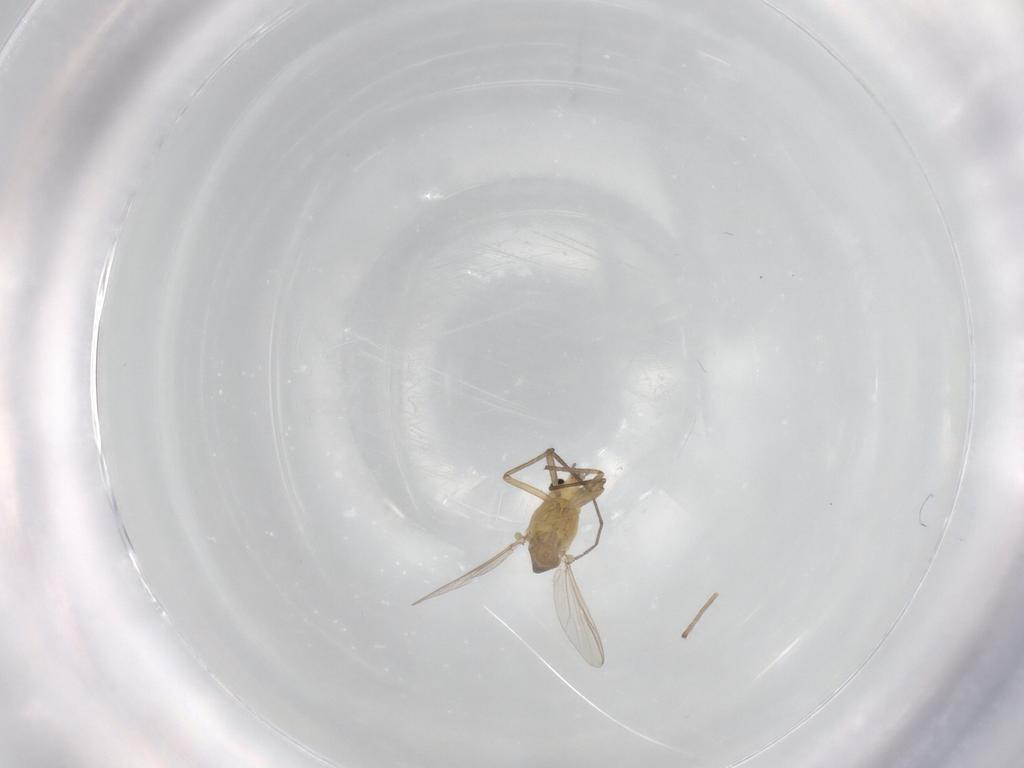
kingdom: Animalia
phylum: Arthropoda
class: Insecta
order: Diptera
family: Chironomidae
